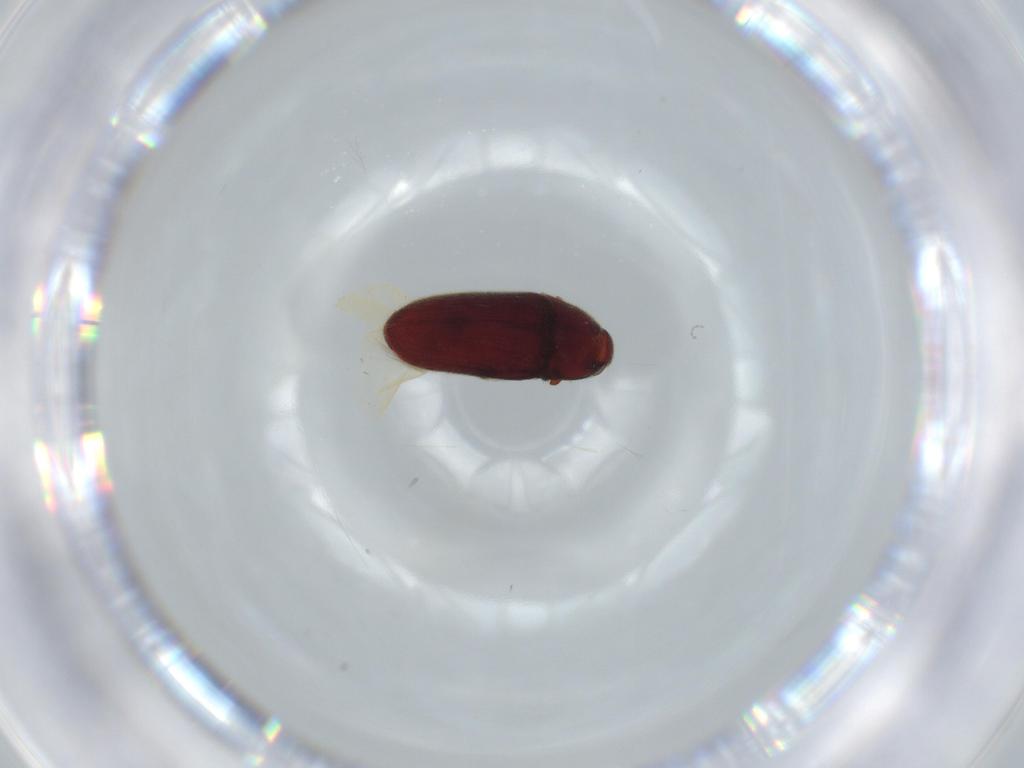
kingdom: Animalia
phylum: Arthropoda
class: Insecta
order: Coleoptera
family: Throscidae
